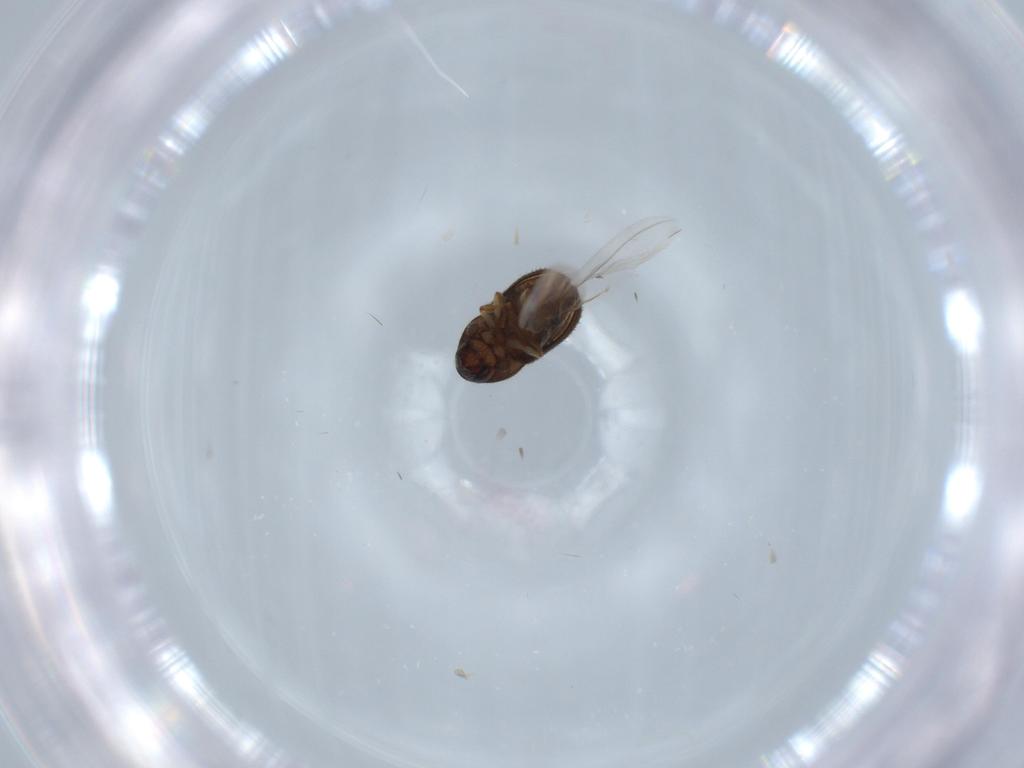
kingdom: Animalia
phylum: Arthropoda
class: Insecta
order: Coleoptera
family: Curculionidae
